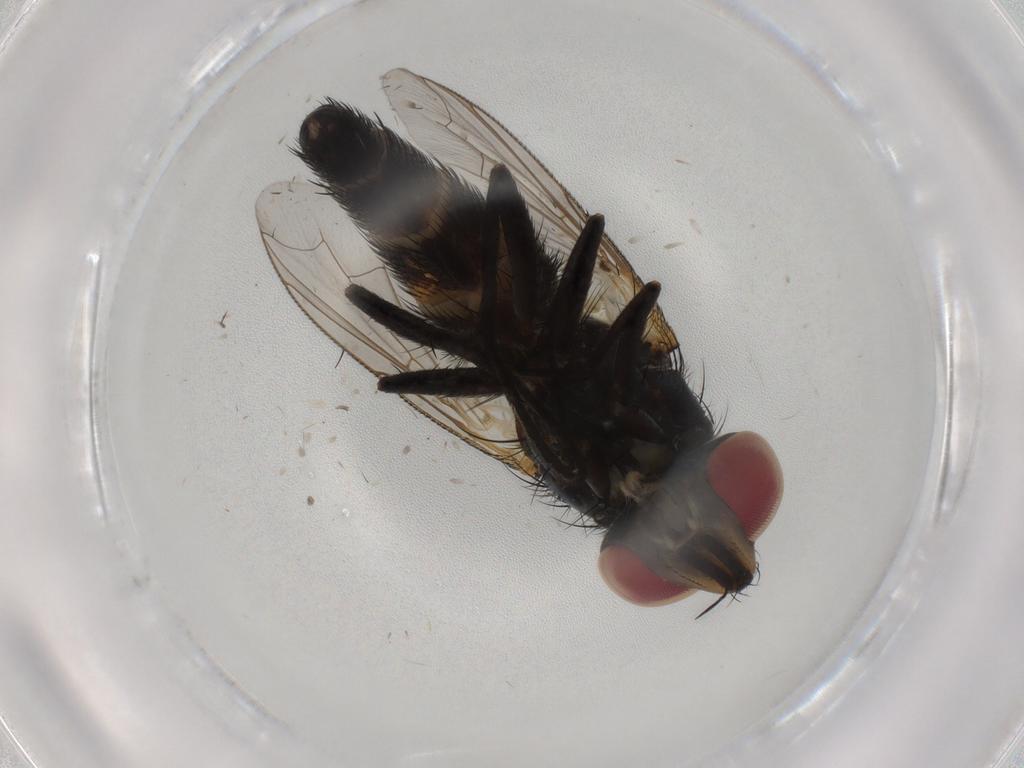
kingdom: Animalia
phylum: Arthropoda
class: Insecta
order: Diptera
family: Anthomyiidae
